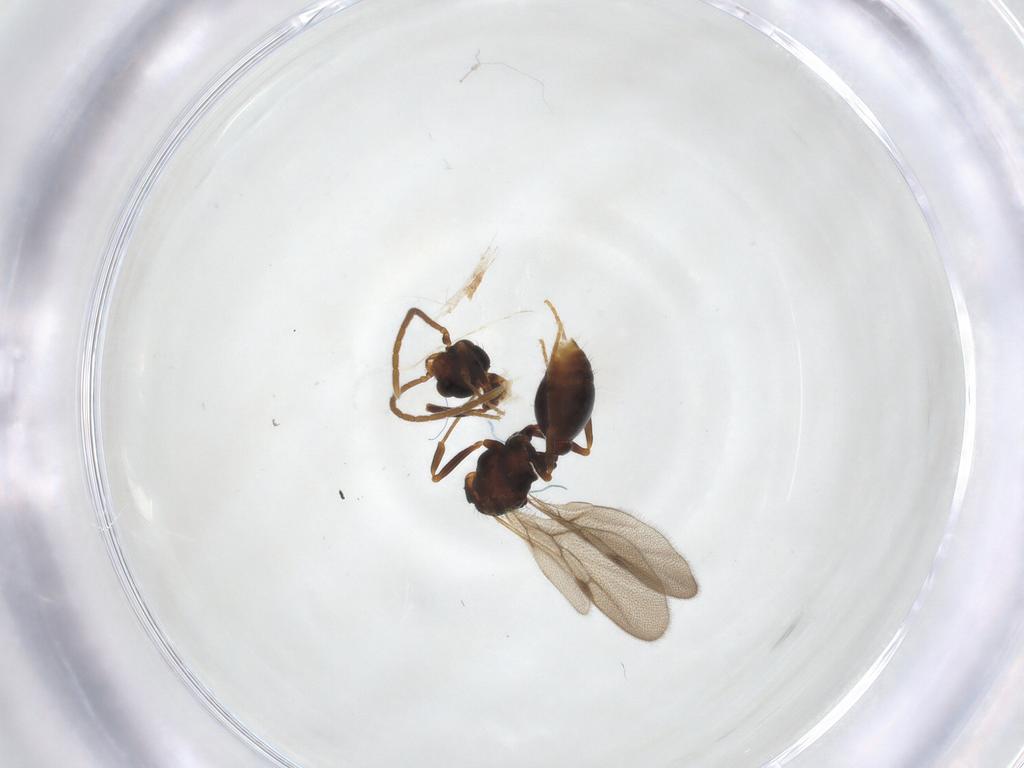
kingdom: Animalia
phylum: Arthropoda
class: Insecta
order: Hymenoptera
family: Formicidae
